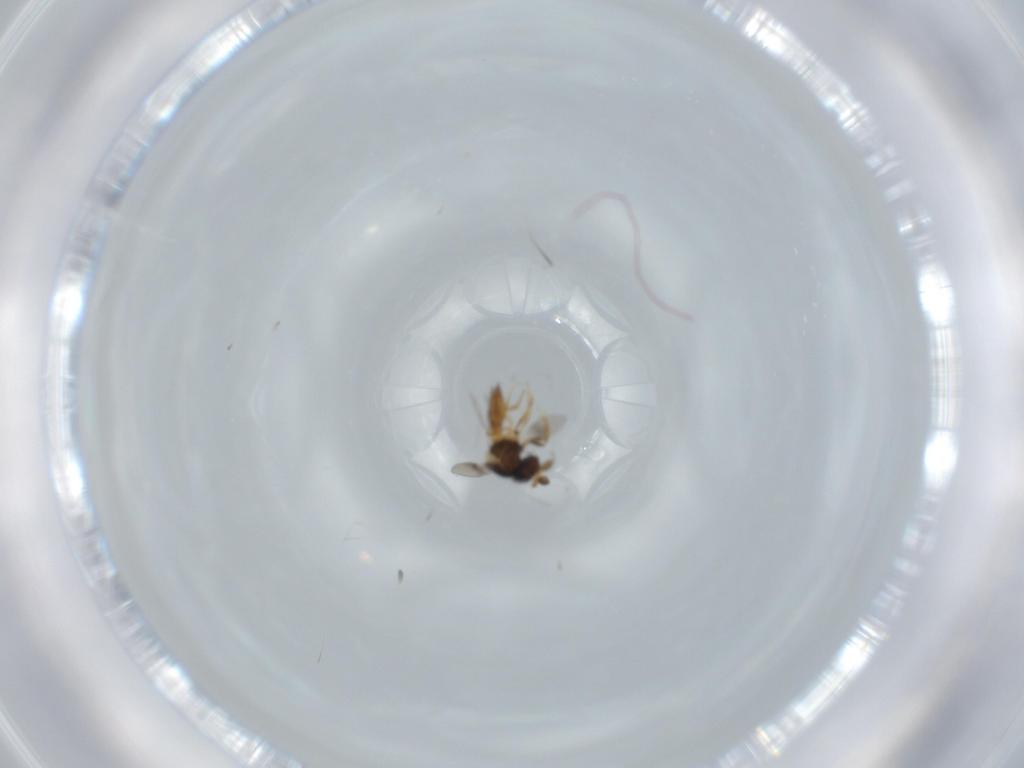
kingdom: Animalia
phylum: Arthropoda
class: Insecta
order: Hymenoptera
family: Scelionidae
